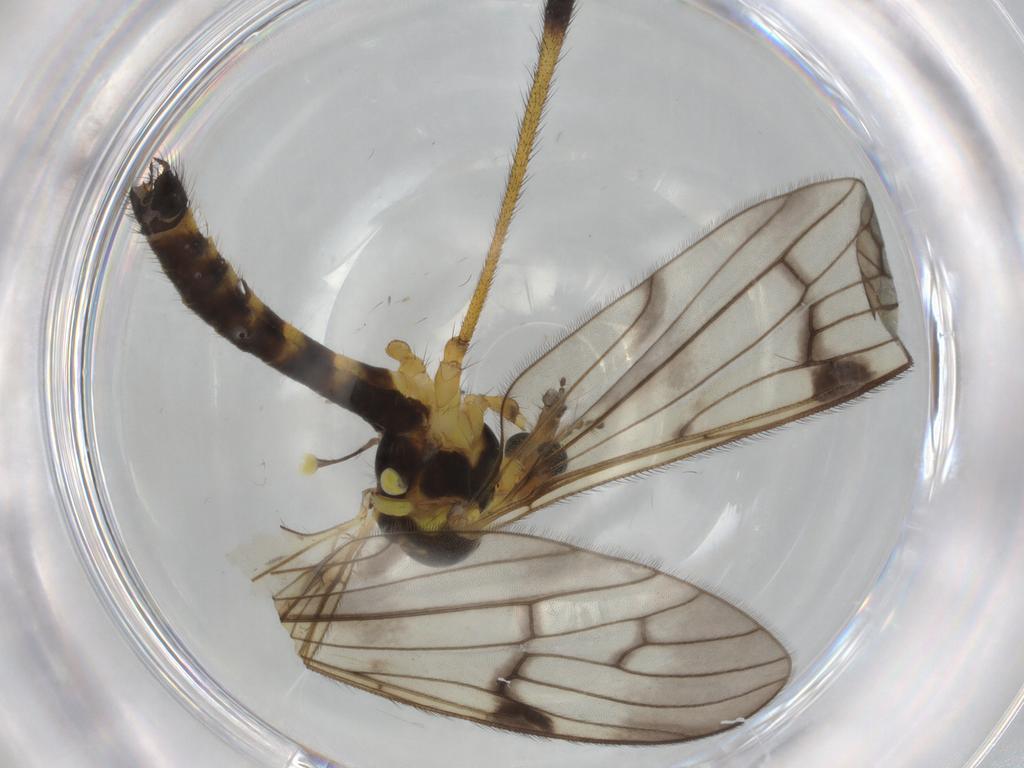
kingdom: Animalia
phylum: Arthropoda
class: Insecta
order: Diptera
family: Limoniidae
